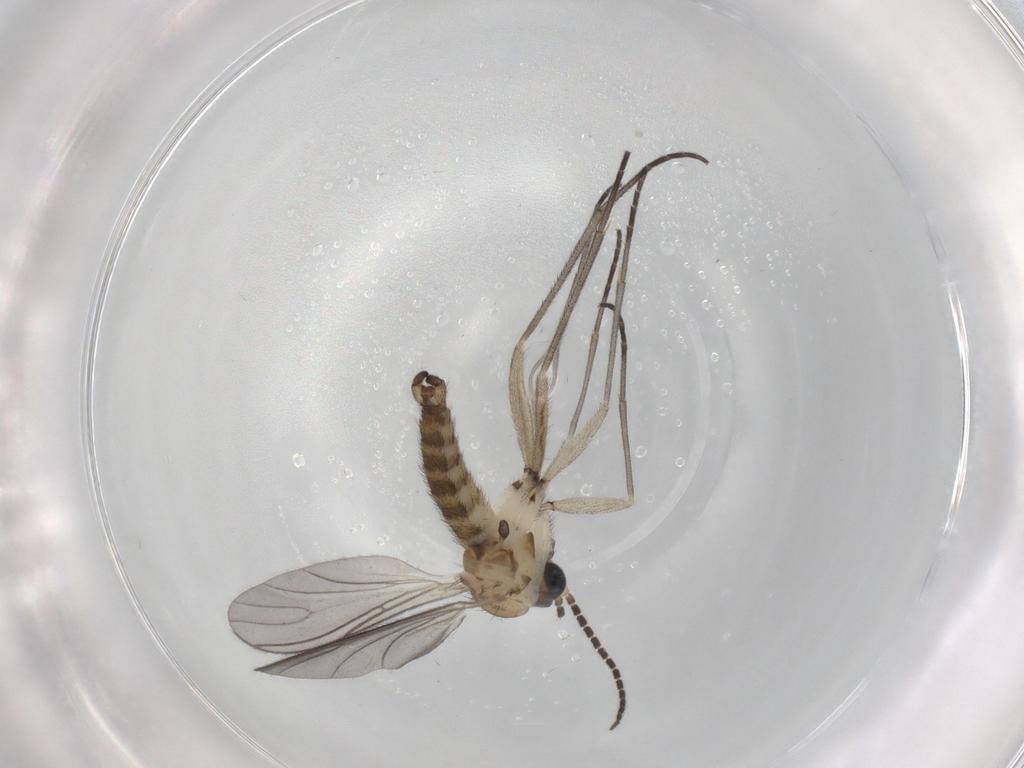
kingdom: Animalia
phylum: Arthropoda
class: Insecta
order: Diptera
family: Sciaridae
